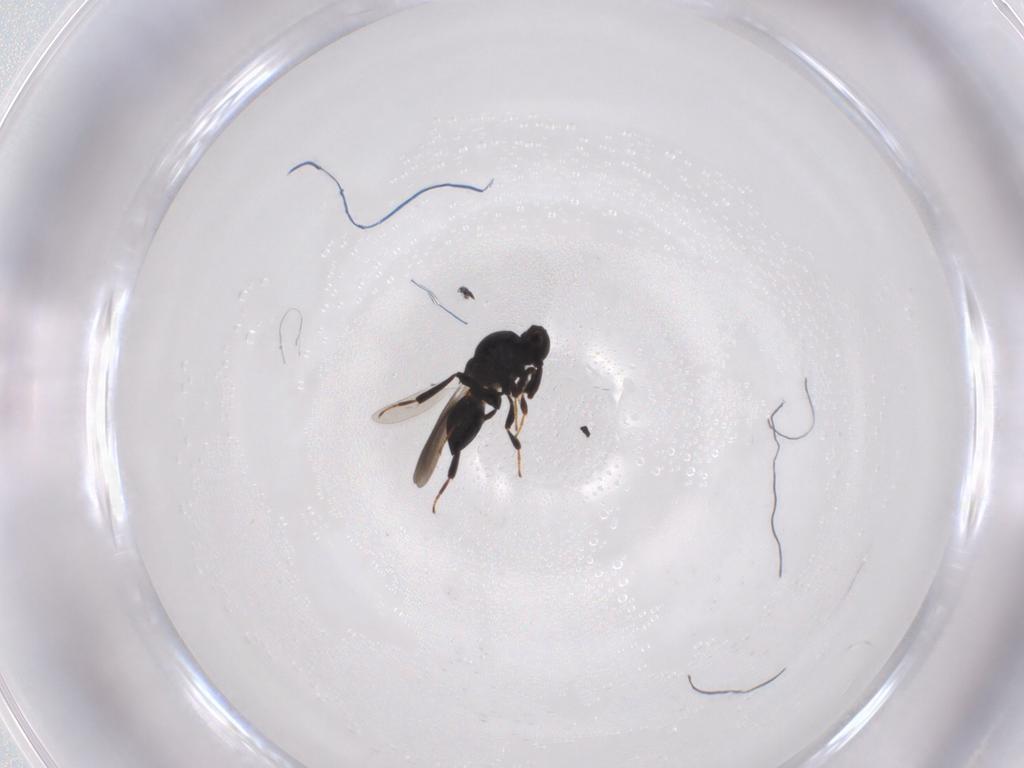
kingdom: Animalia
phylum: Arthropoda
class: Insecta
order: Hymenoptera
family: Platygastridae
